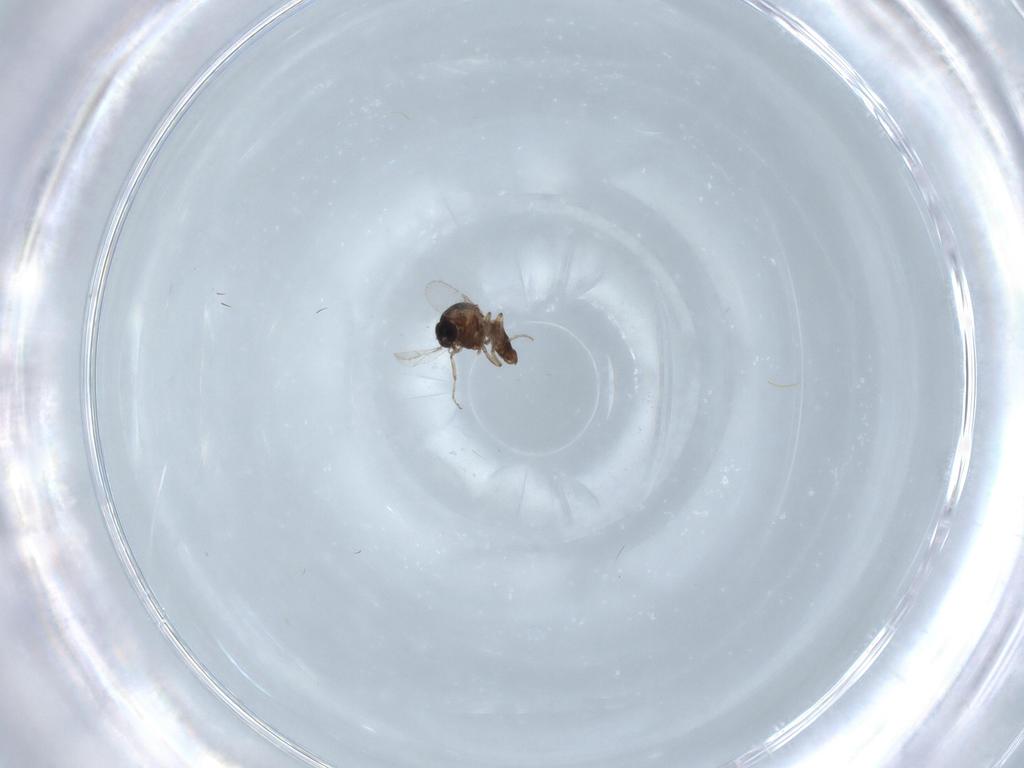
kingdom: Animalia
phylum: Arthropoda
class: Insecta
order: Diptera
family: Ceratopogonidae
